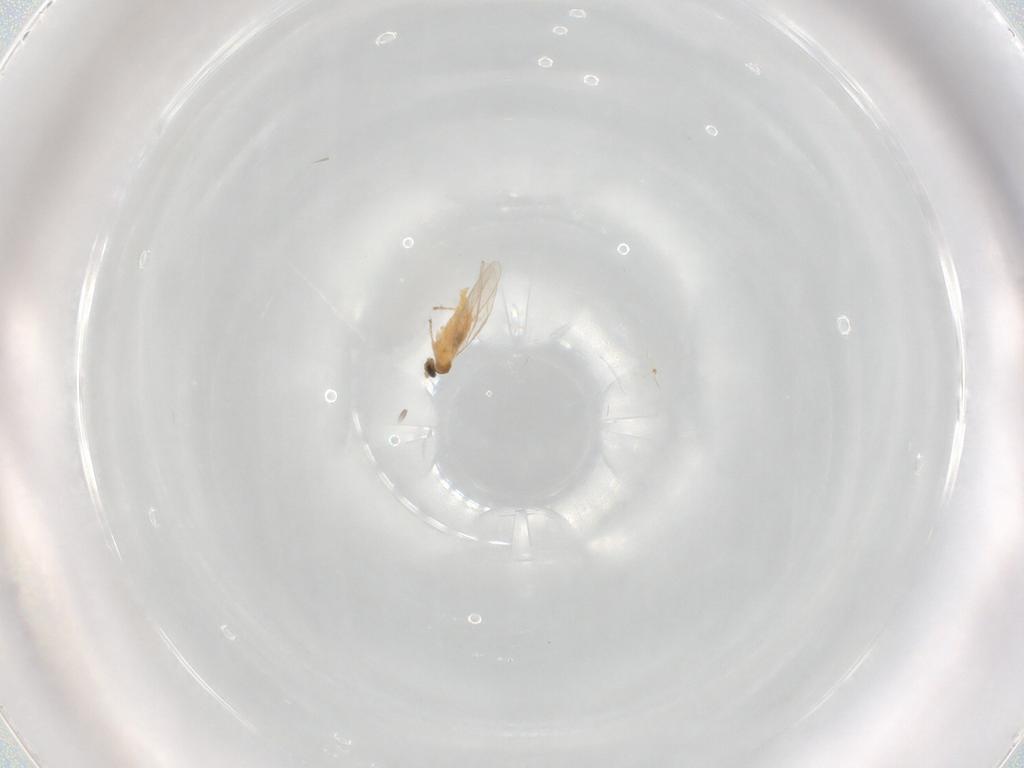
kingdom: Animalia
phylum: Arthropoda
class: Insecta
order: Diptera
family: Cecidomyiidae
